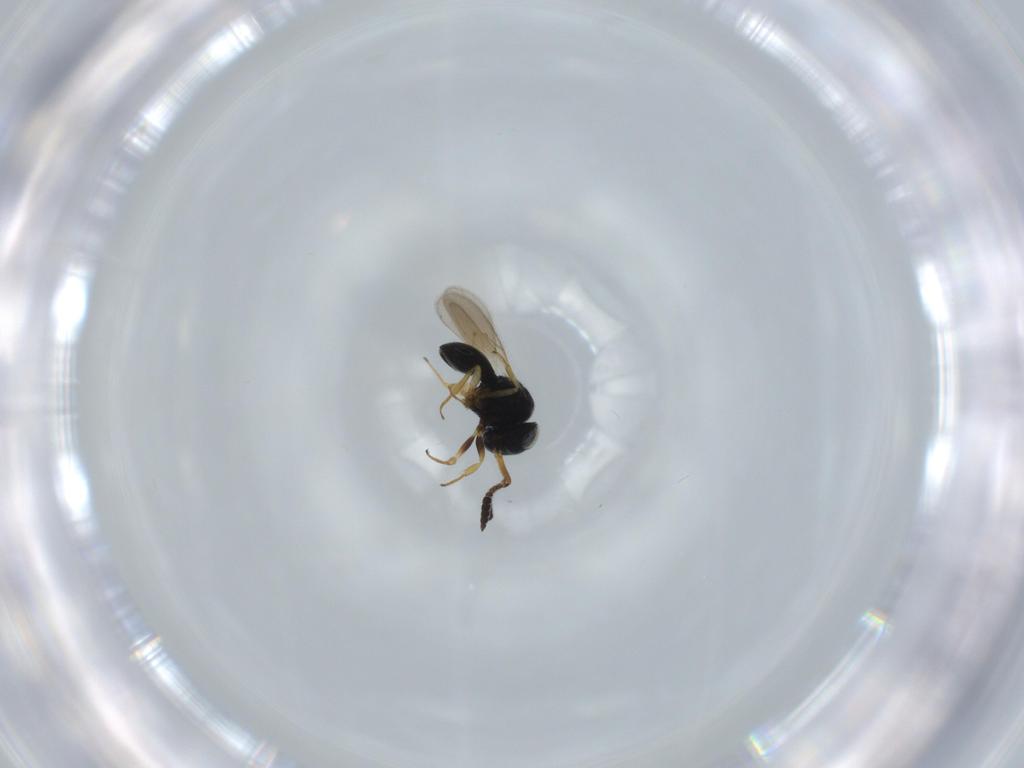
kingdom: Animalia
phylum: Arthropoda
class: Insecta
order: Hymenoptera
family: Scelionidae
